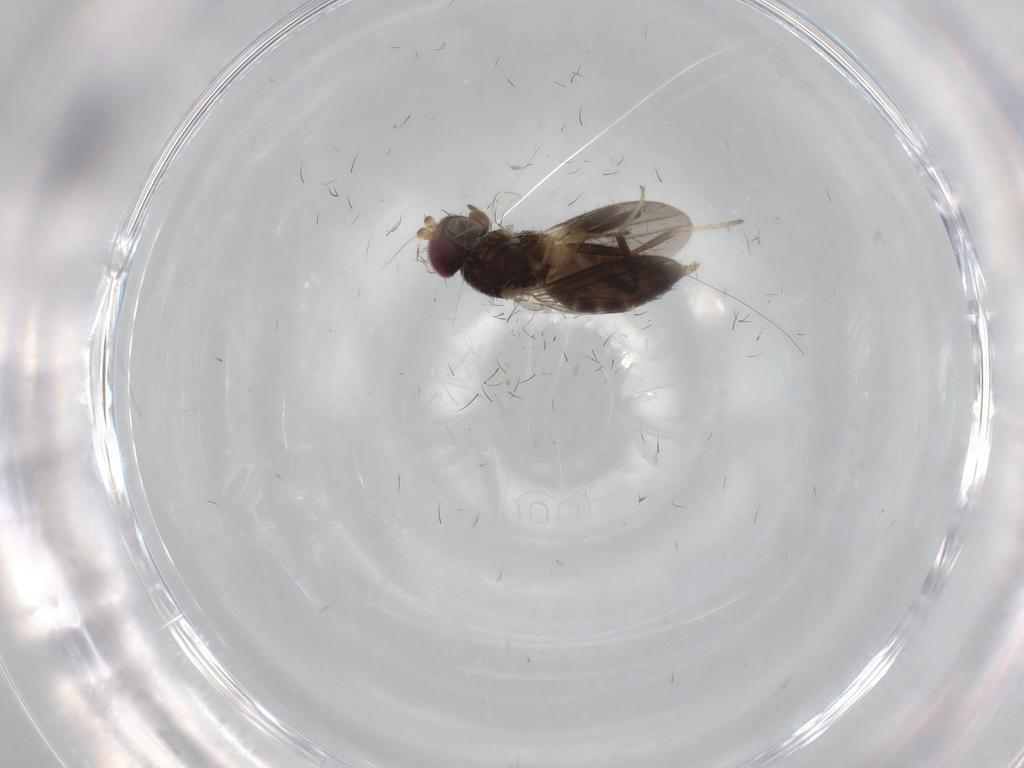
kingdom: Animalia
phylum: Arthropoda
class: Insecta
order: Diptera
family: Clusiidae
